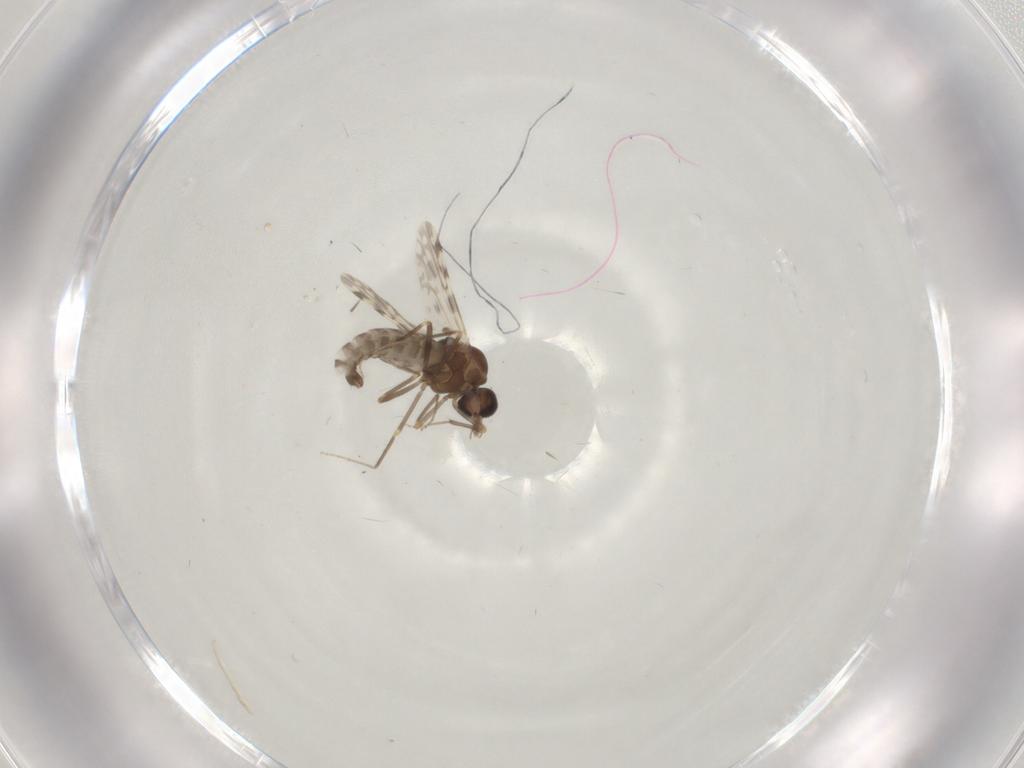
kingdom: Animalia
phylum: Arthropoda
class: Insecta
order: Diptera
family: Ceratopogonidae
